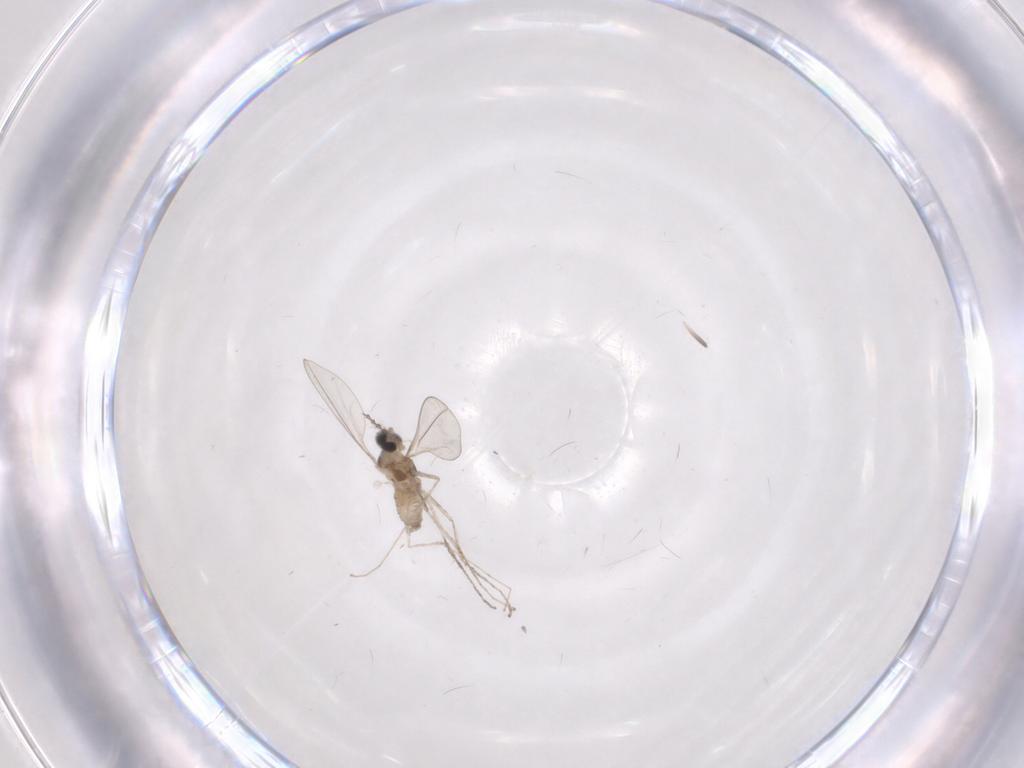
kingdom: Animalia
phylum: Arthropoda
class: Insecta
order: Diptera
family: Cecidomyiidae
